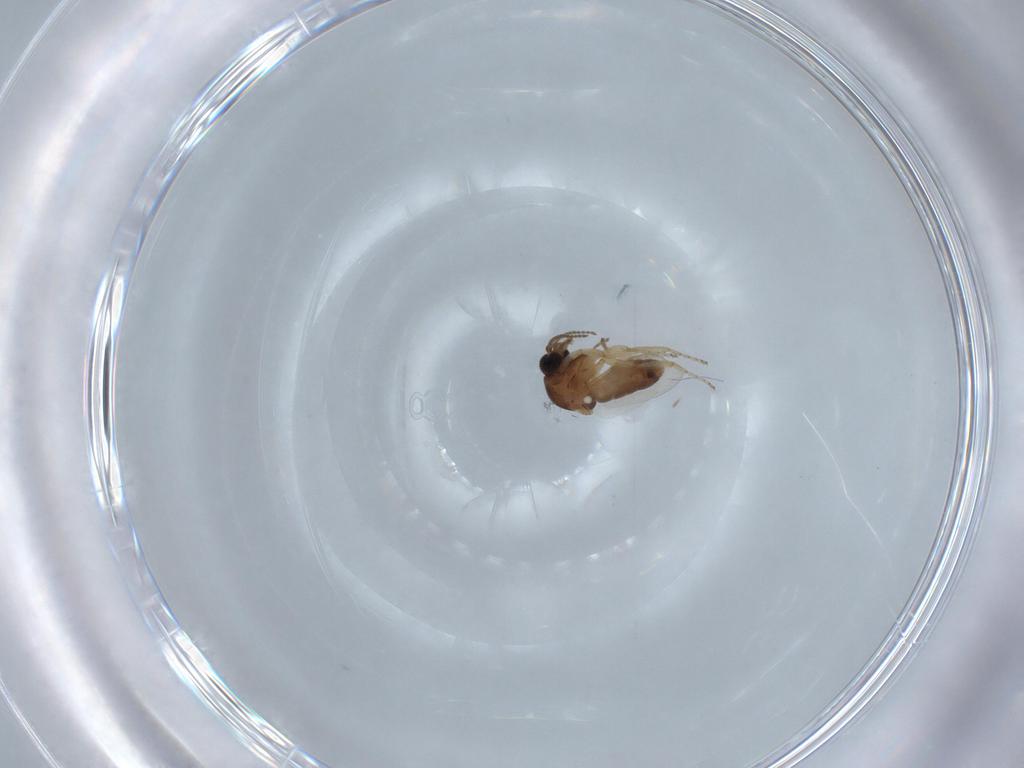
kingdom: Animalia
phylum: Arthropoda
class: Insecta
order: Diptera
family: Ceratopogonidae
